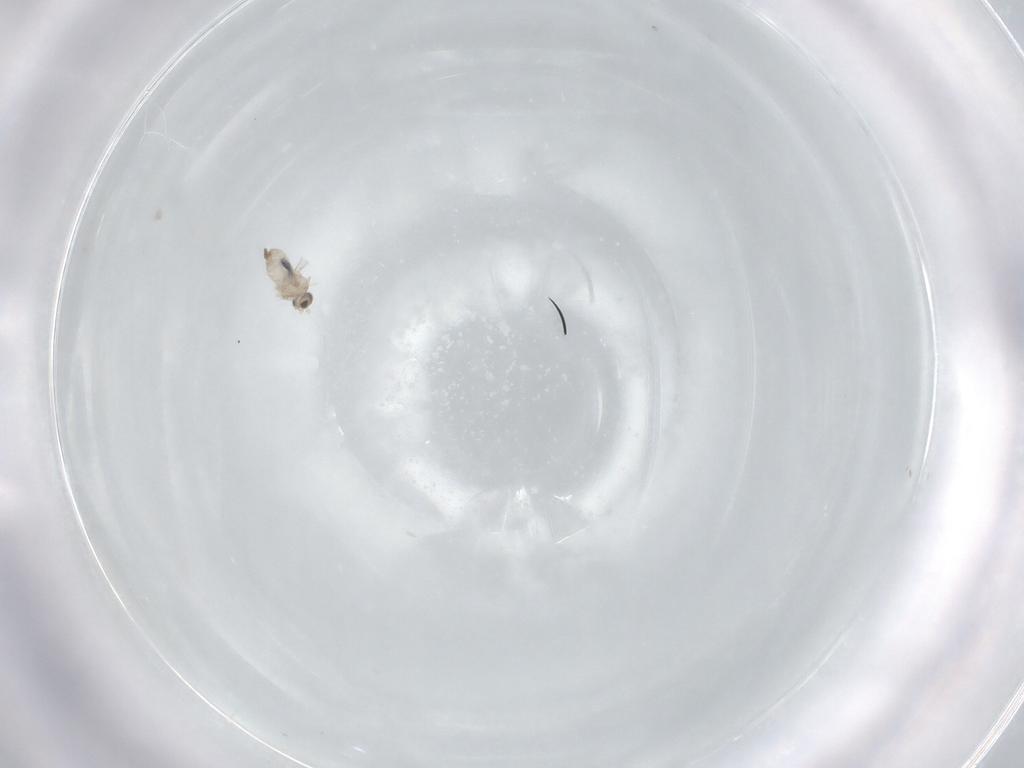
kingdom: Animalia
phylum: Arthropoda
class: Insecta
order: Diptera
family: Cecidomyiidae
